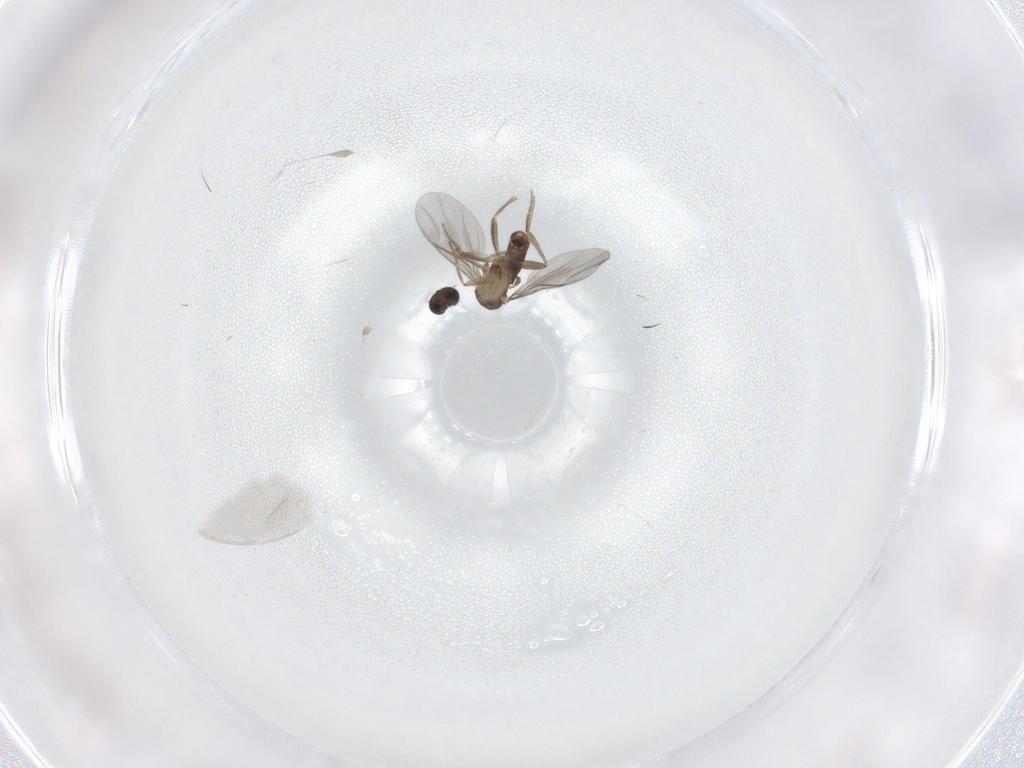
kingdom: Animalia
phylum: Arthropoda
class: Insecta
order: Diptera
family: Cecidomyiidae
